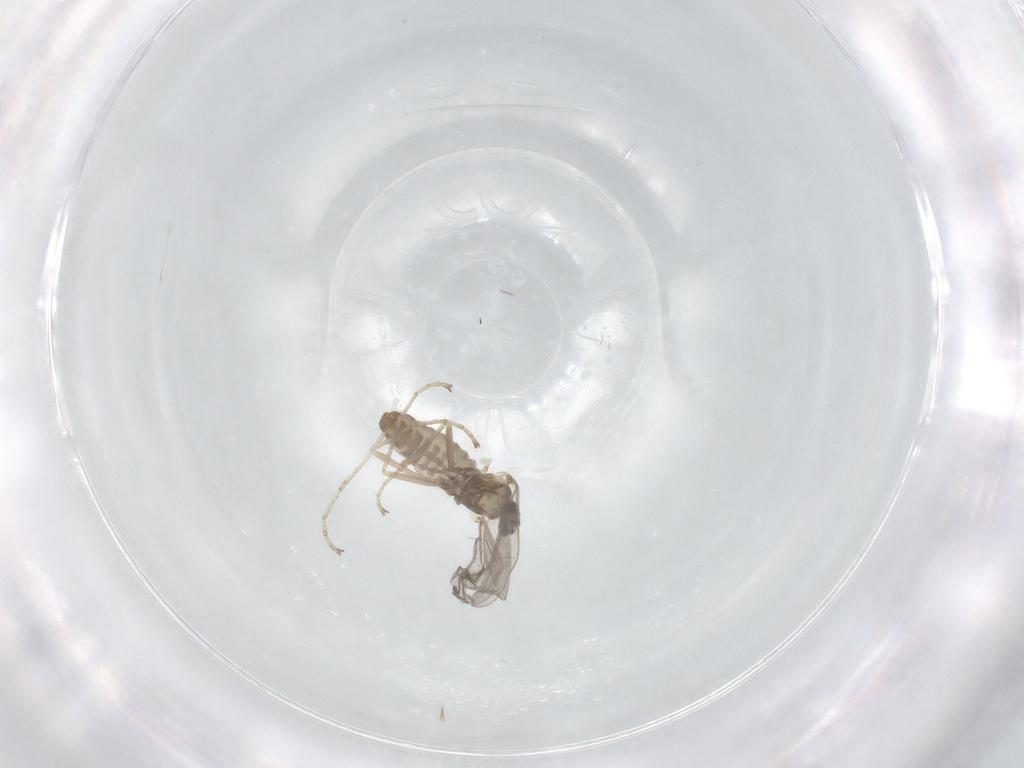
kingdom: Animalia
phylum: Arthropoda
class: Insecta
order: Diptera
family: Cecidomyiidae
